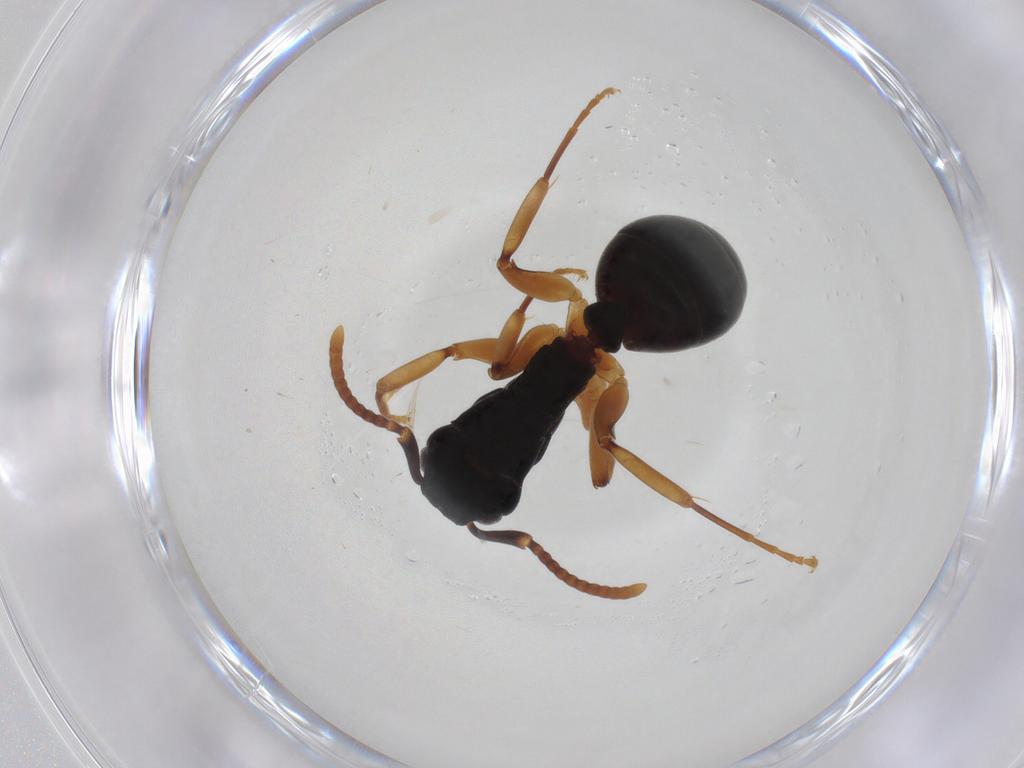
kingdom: Animalia
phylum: Arthropoda
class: Insecta
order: Hymenoptera
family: Formicidae
